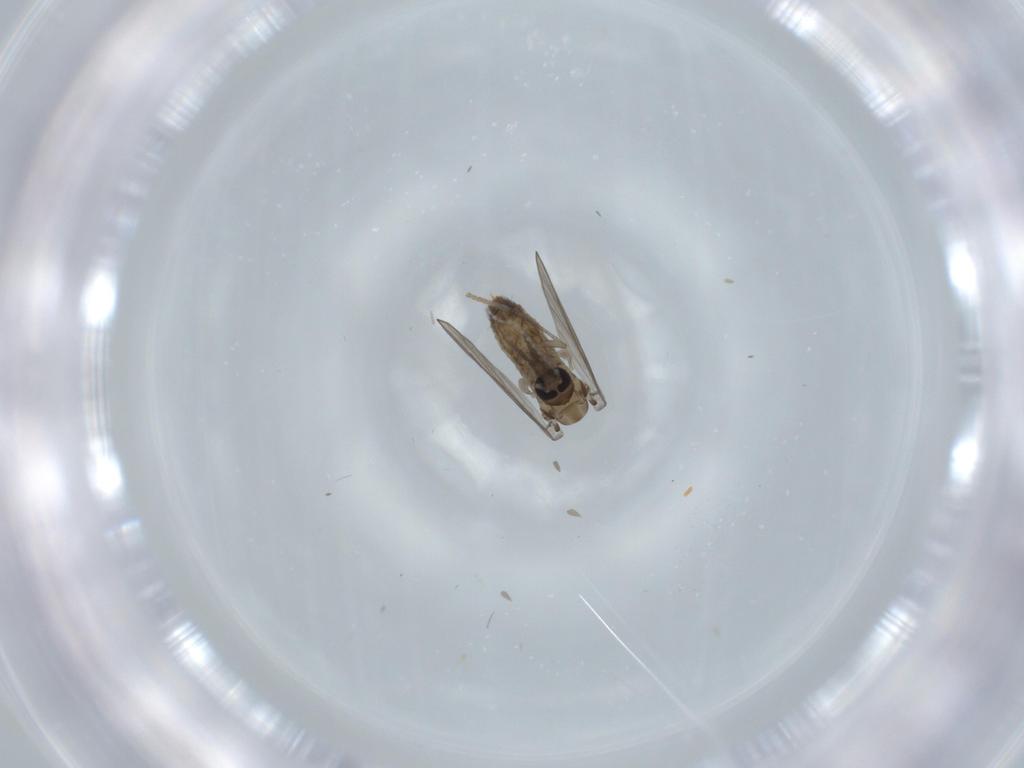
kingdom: Animalia
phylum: Arthropoda
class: Insecta
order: Diptera
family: Psychodidae
